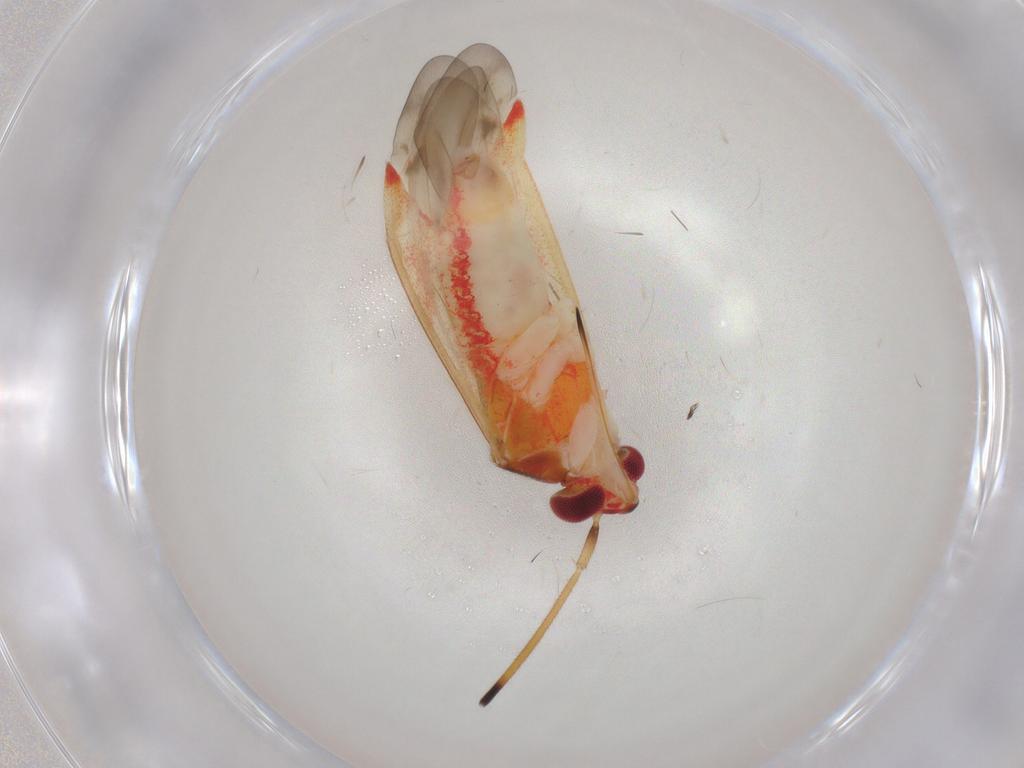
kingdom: Animalia
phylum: Arthropoda
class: Insecta
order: Hemiptera
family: Miridae
